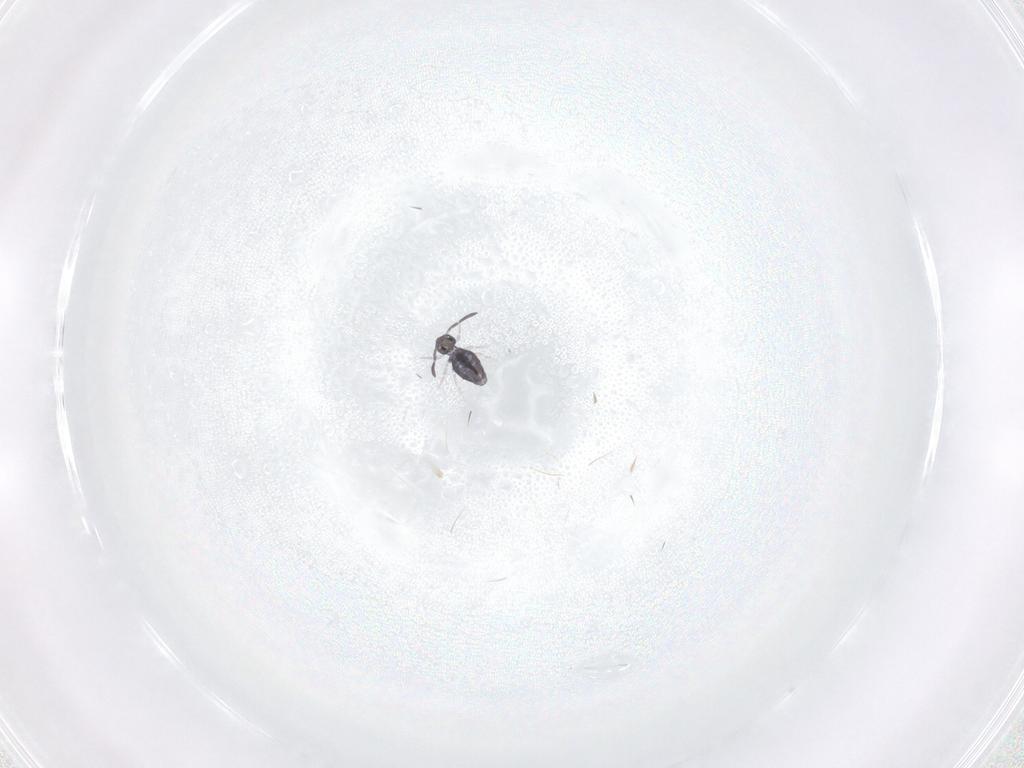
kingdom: Animalia
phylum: Arthropoda
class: Collembola
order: Symphypleona
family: Katiannidae
